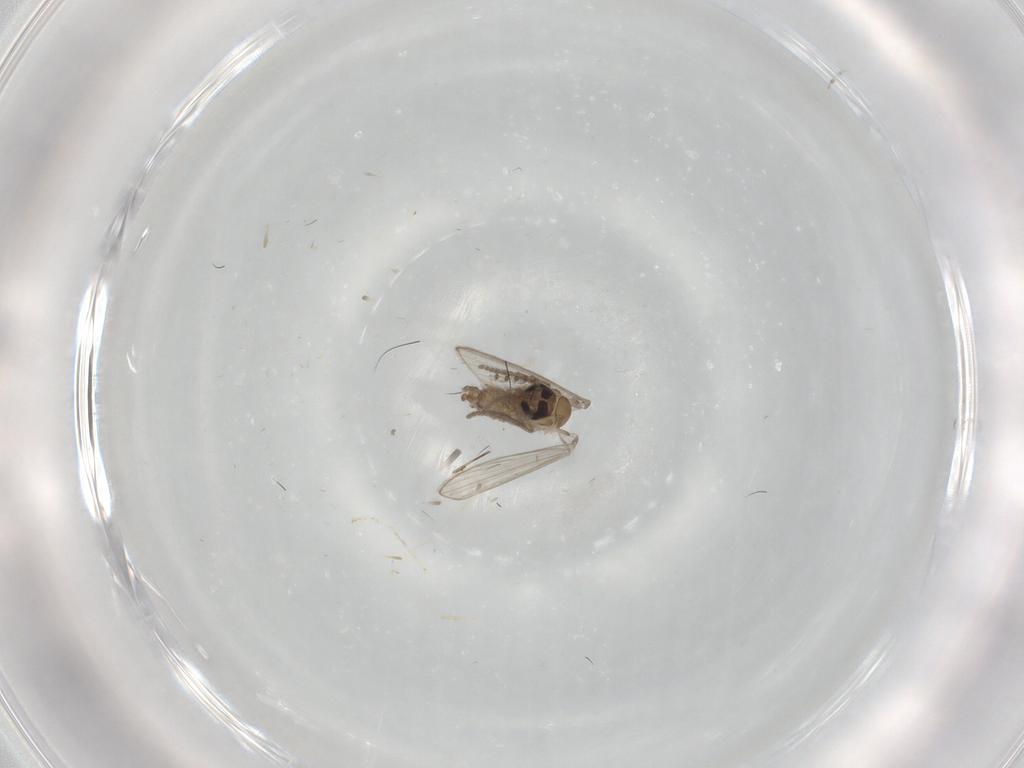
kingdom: Animalia
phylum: Arthropoda
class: Insecta
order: Diptera
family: Psychodidae
